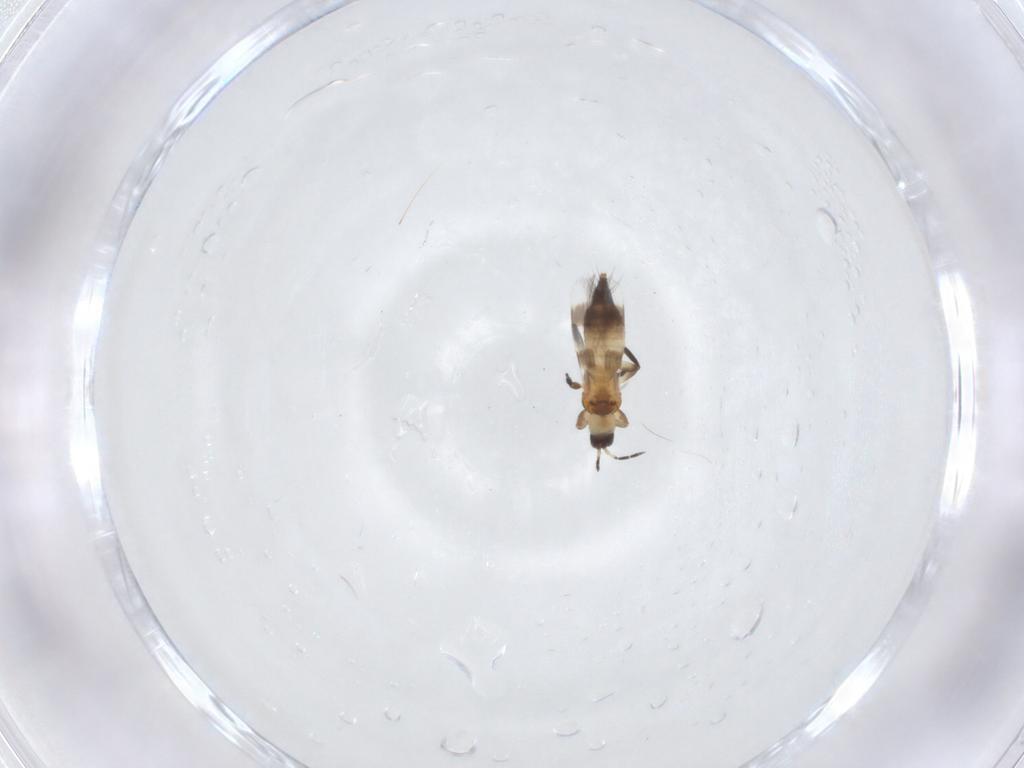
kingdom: Animalia
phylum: Arthropoda
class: Insecta
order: Thysanoptera
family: Aeolothripidae
